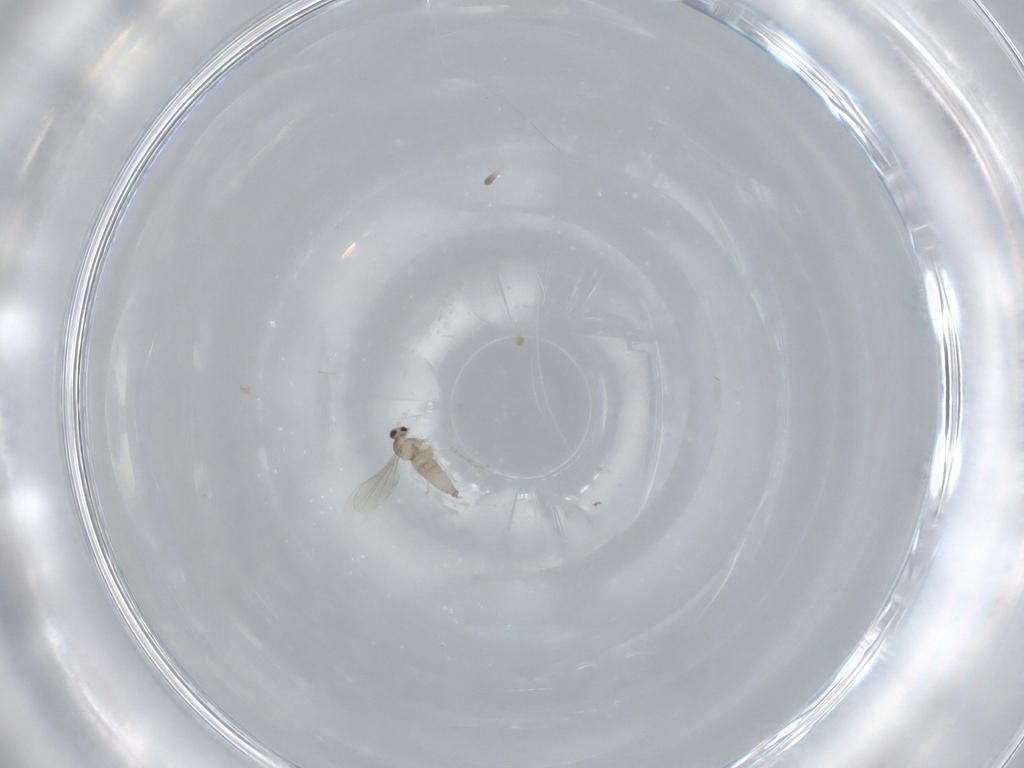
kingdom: Animalia
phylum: Arthropoda
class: Insecta
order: Diptera
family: Cecidomyiidae
